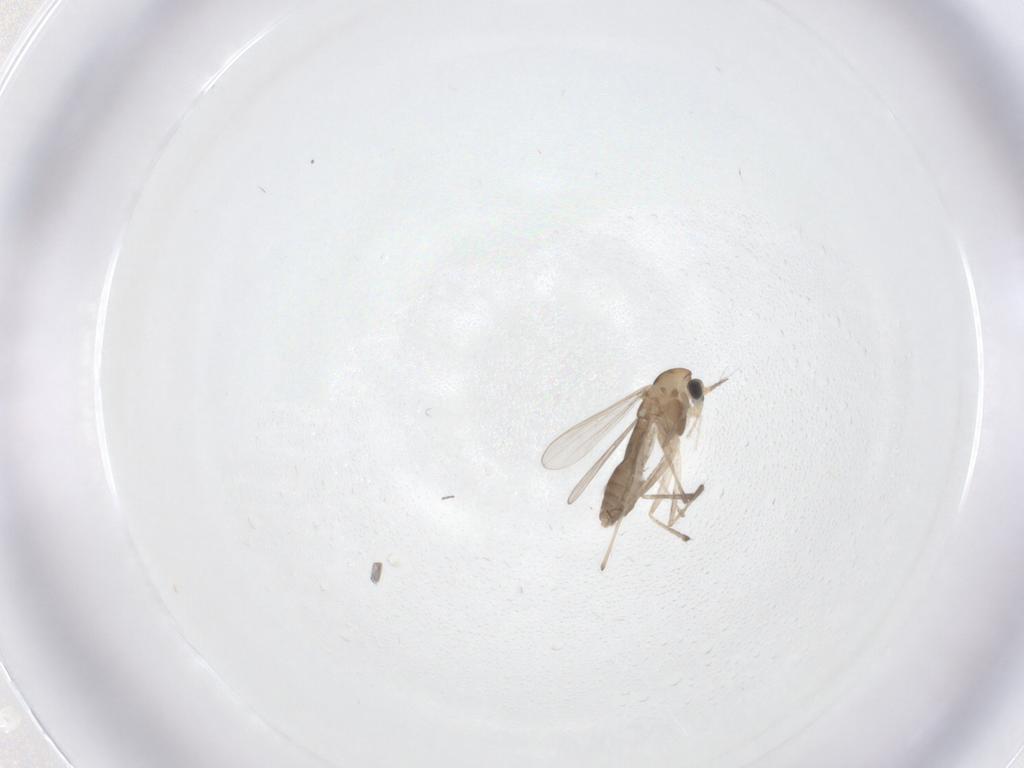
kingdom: Animalia
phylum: Arthropoda
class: Insecta
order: Diptera
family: Chironomidae
